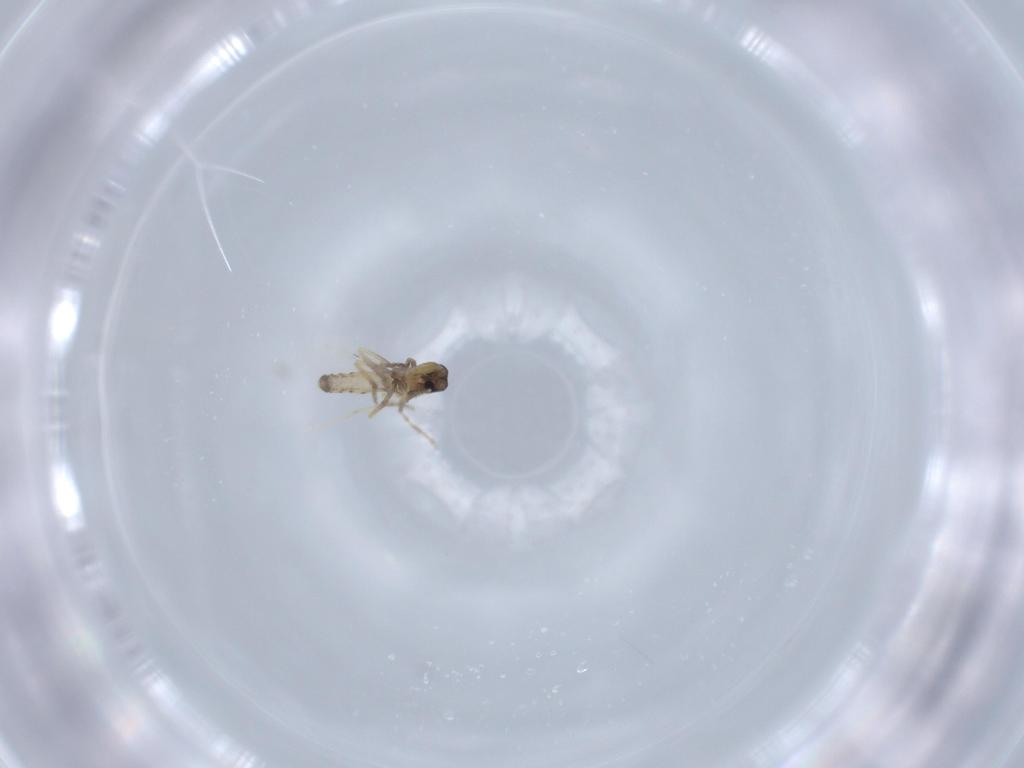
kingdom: Animalia
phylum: Arthropoda
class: Insecta
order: Diptera
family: Ceratopogonidae
